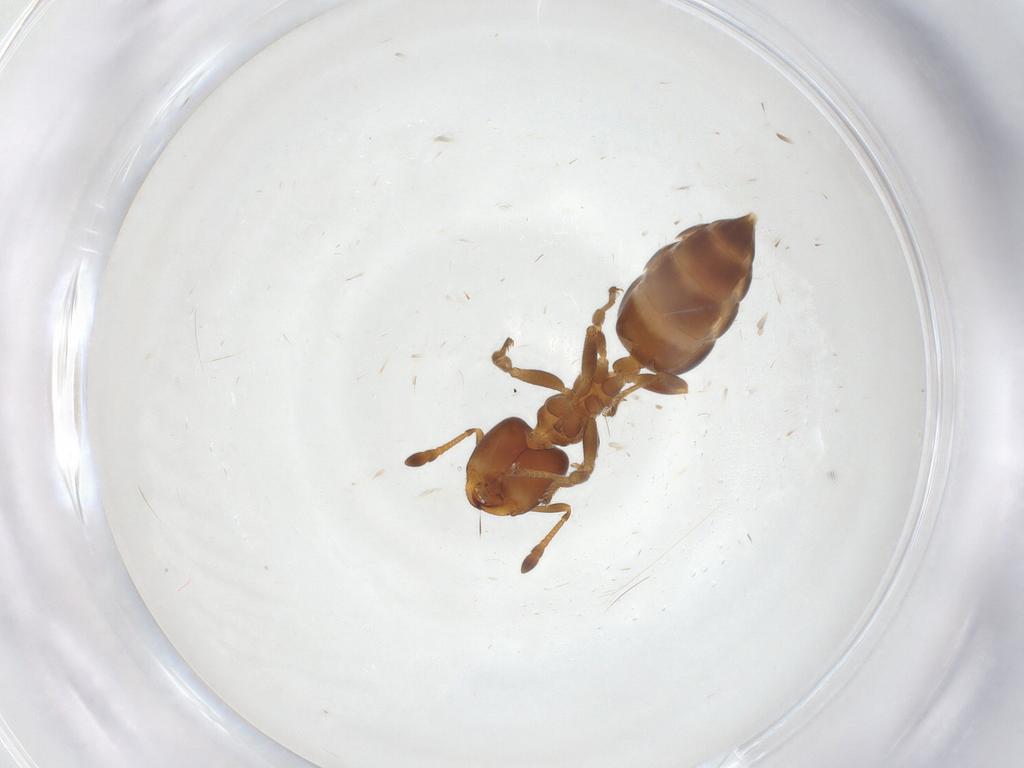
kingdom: Animalia
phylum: Arthropoda
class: Insecta
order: Hymenoptera
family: Formicidae
